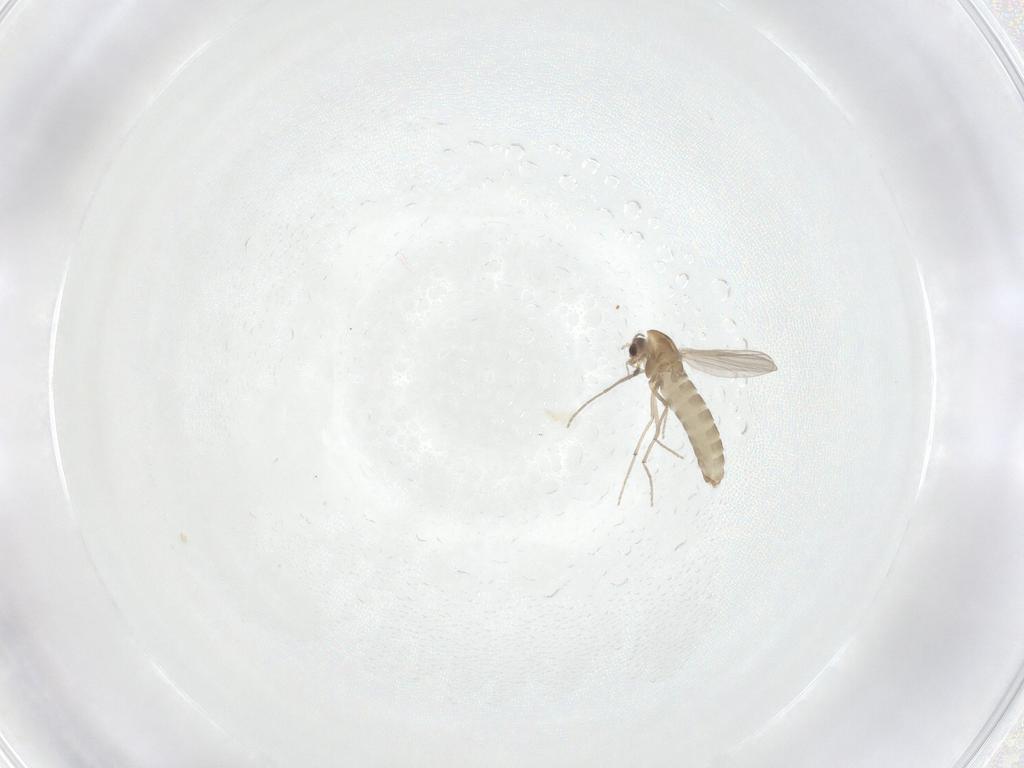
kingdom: Animalia
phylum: Arthropoda
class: Insecta
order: Diptera
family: Chironomidae
